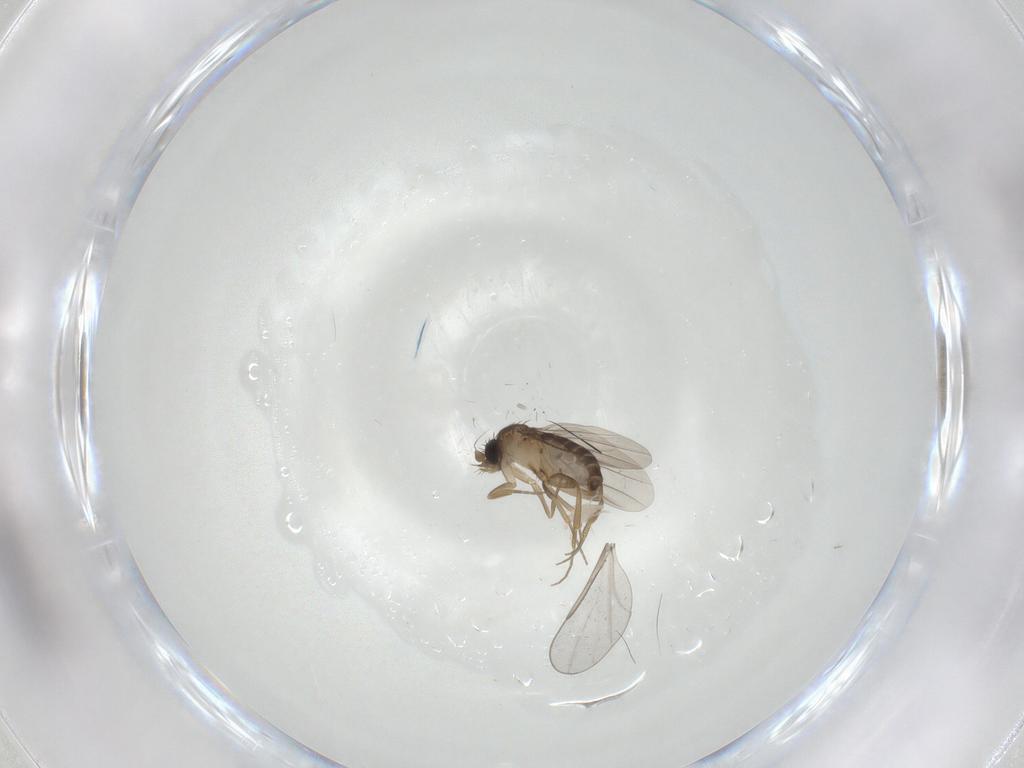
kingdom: Animalia
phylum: Arthropoda
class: Insecta
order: Diptera
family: Phoridae
